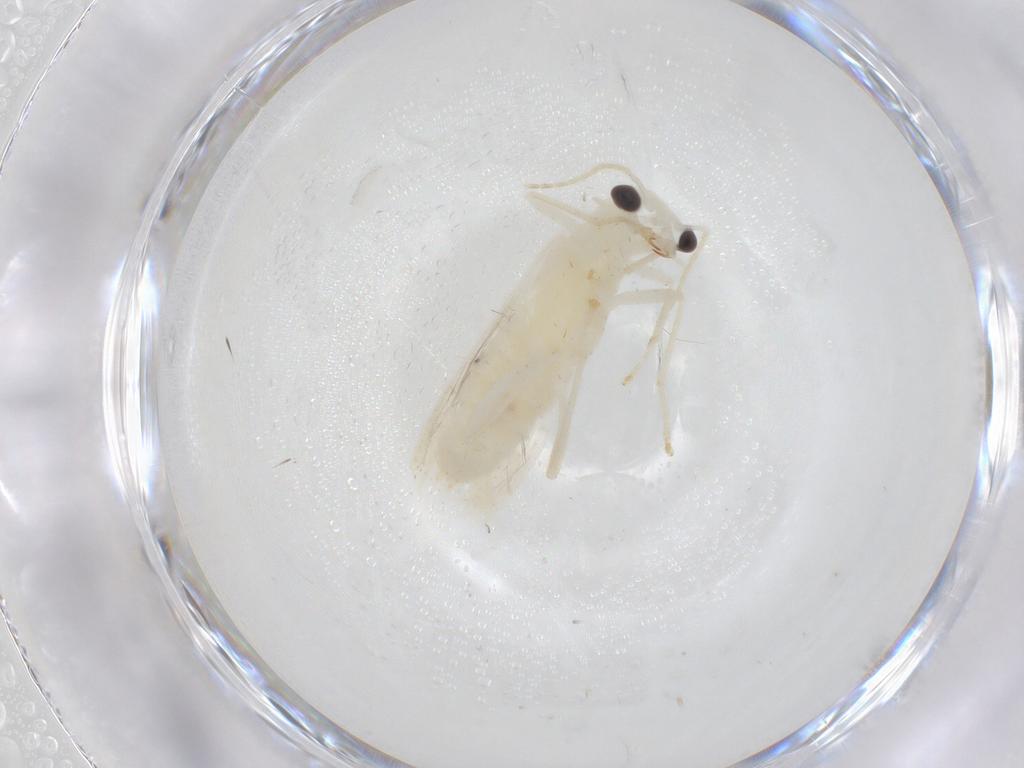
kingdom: Animalia
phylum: Arthropoda
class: Insecta
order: Coleoptera
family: Cantharidae
